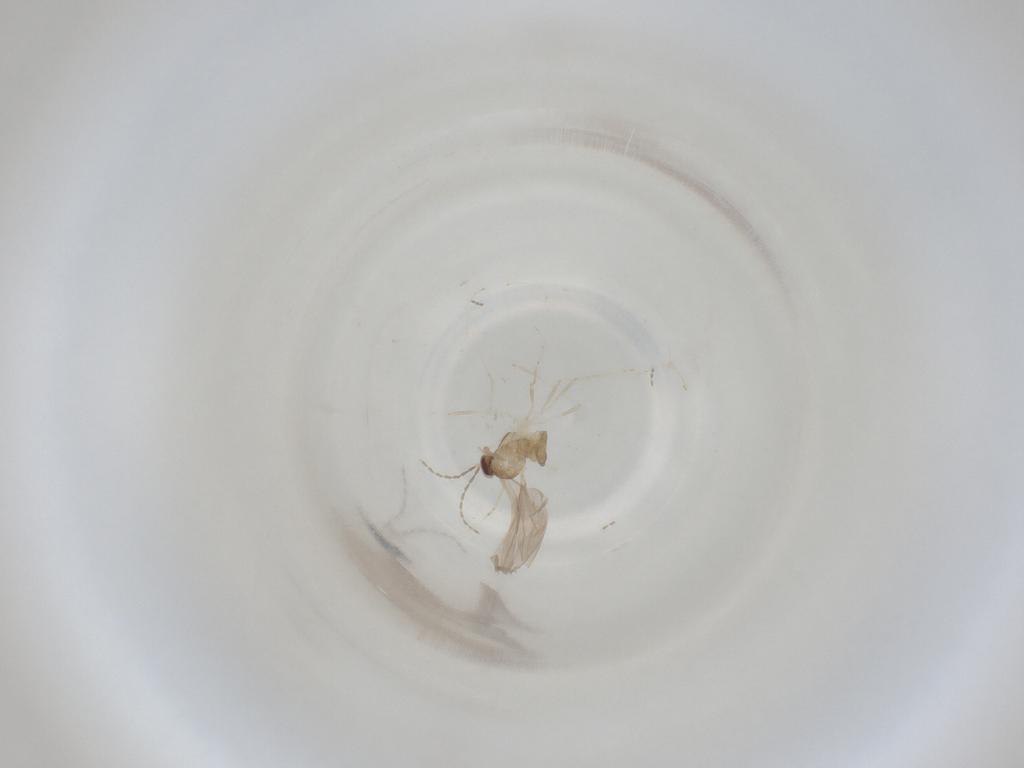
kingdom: Animalia
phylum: Arthropoda
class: Insecta
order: Diptera
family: Cecidomyiidae
